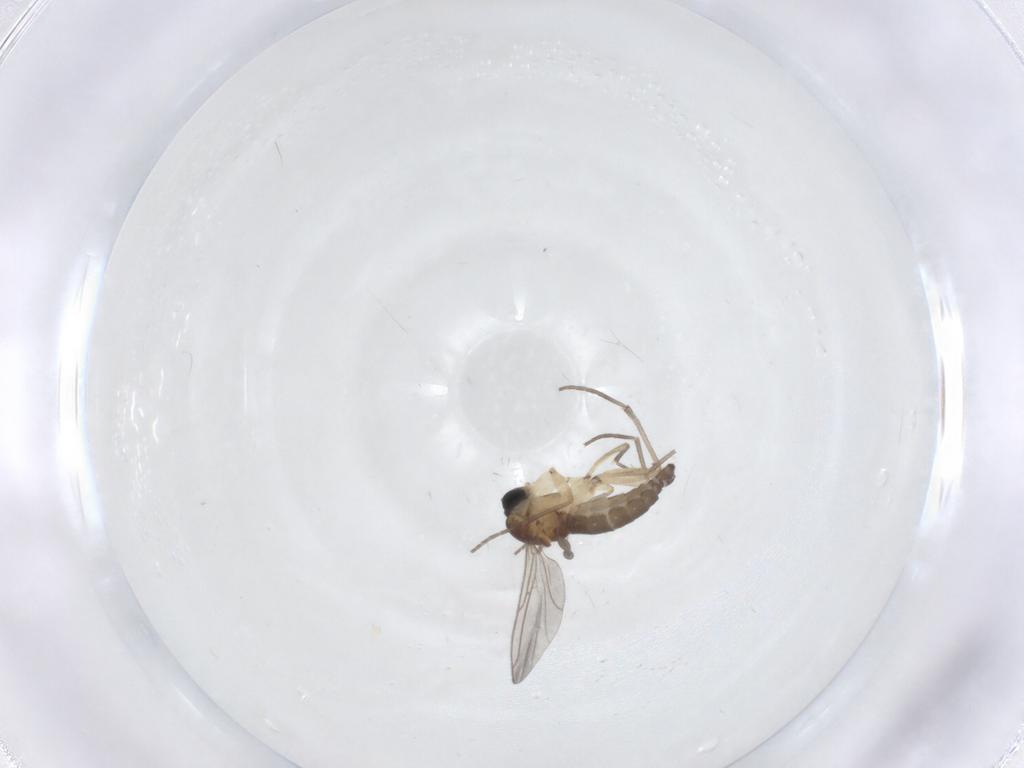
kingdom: Animalia
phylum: Arthropoda
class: Insecta
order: Diptera
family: Sciaridae
